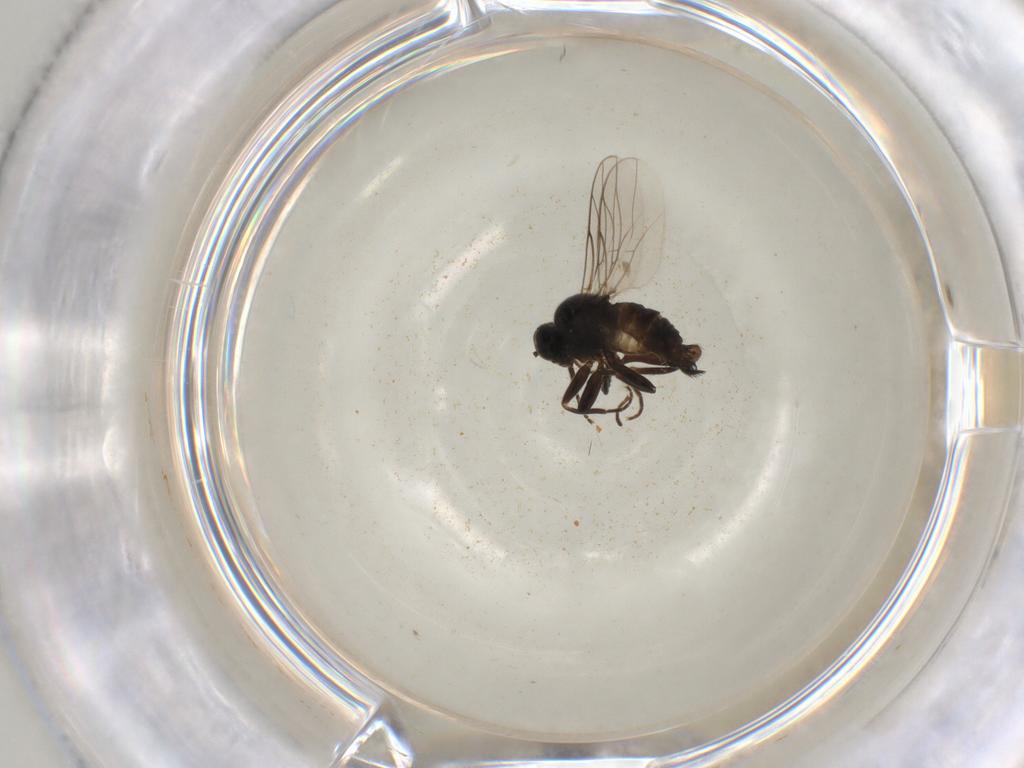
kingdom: Animalia
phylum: Arthropoda
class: Insecta
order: Diptera
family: Hybotidae
